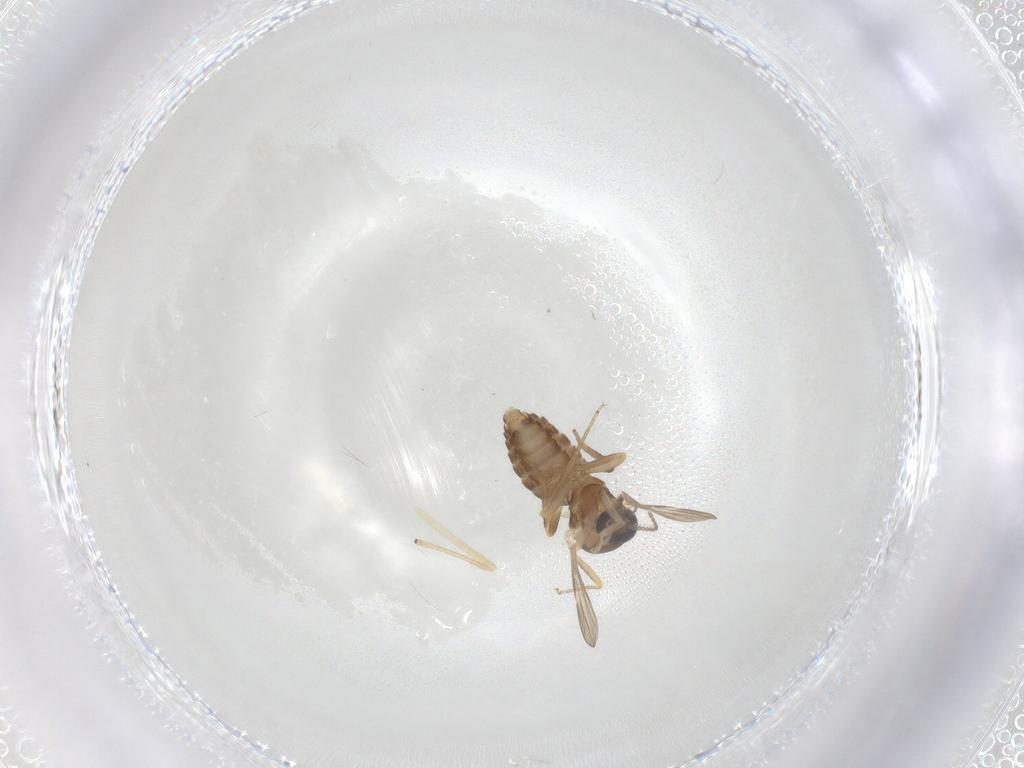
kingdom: Animalia
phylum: Arthropoda
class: Insecta
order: Diptera
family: Ceratopogonidae
